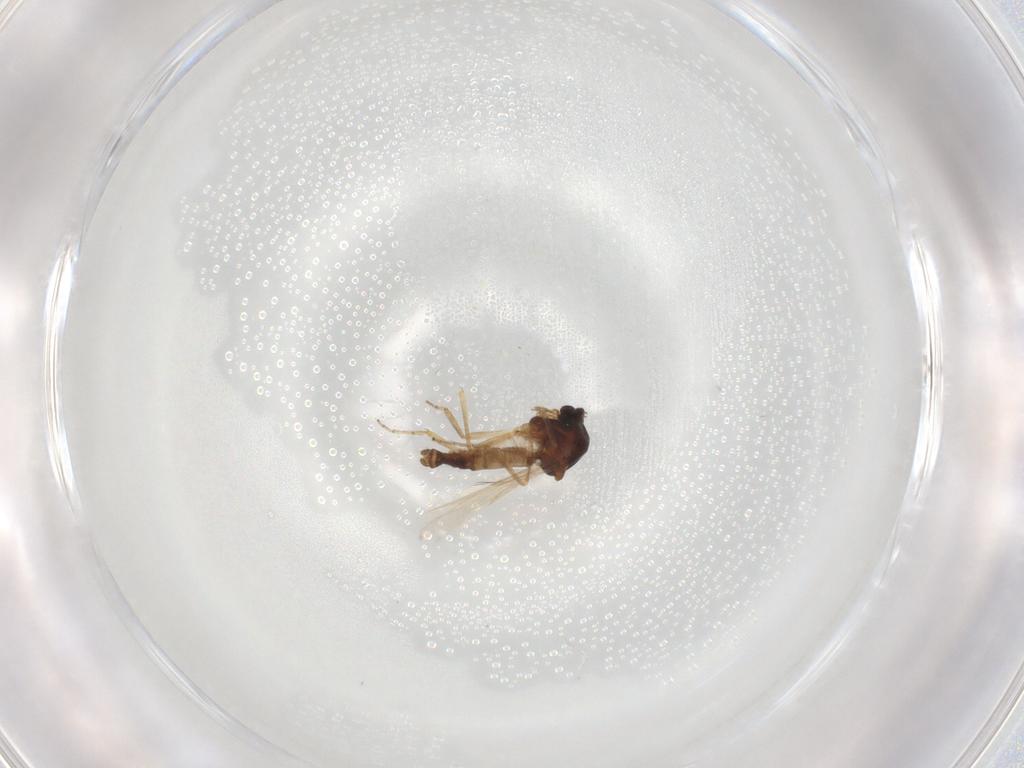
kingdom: Animalia
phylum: Arthropoda
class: Insecta
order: Diptera
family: Ceratopogonidae
